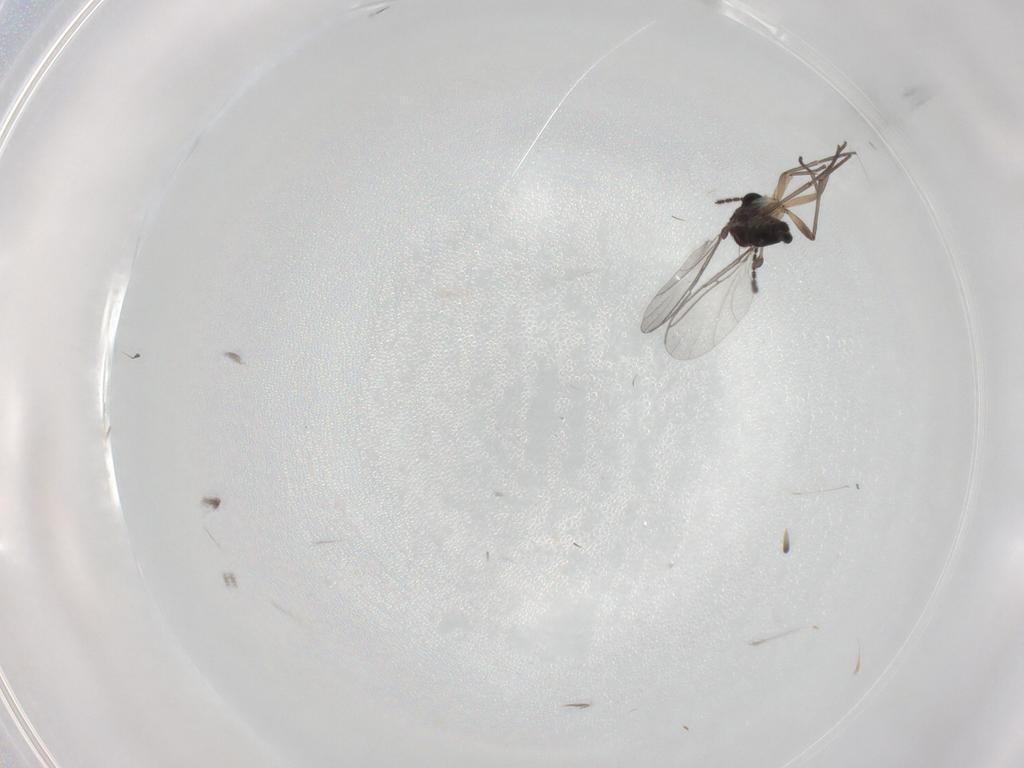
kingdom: Animalia
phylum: Arthropoda
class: Insecta
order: Diptera
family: Cecidomyiidae
